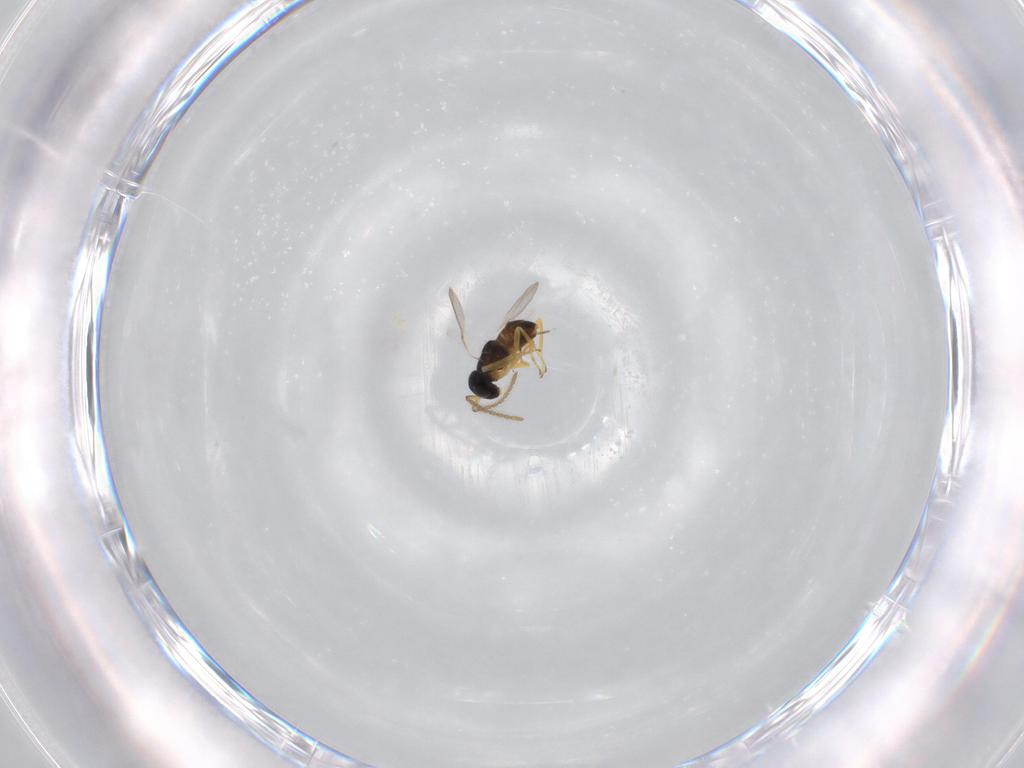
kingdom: Animalia
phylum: Arthropoda
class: Insecta
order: Hymenoptera
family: Encyrtidae
